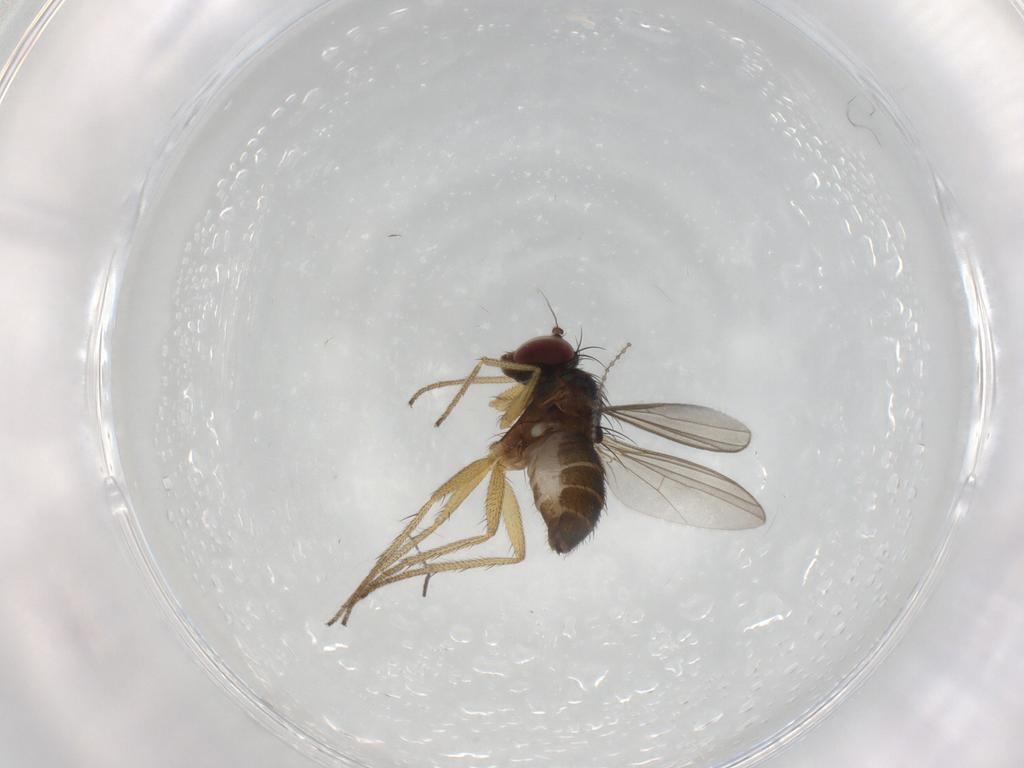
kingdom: Animalia
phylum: Arthropoda
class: Insecta
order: Diptera
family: Sciaridae
